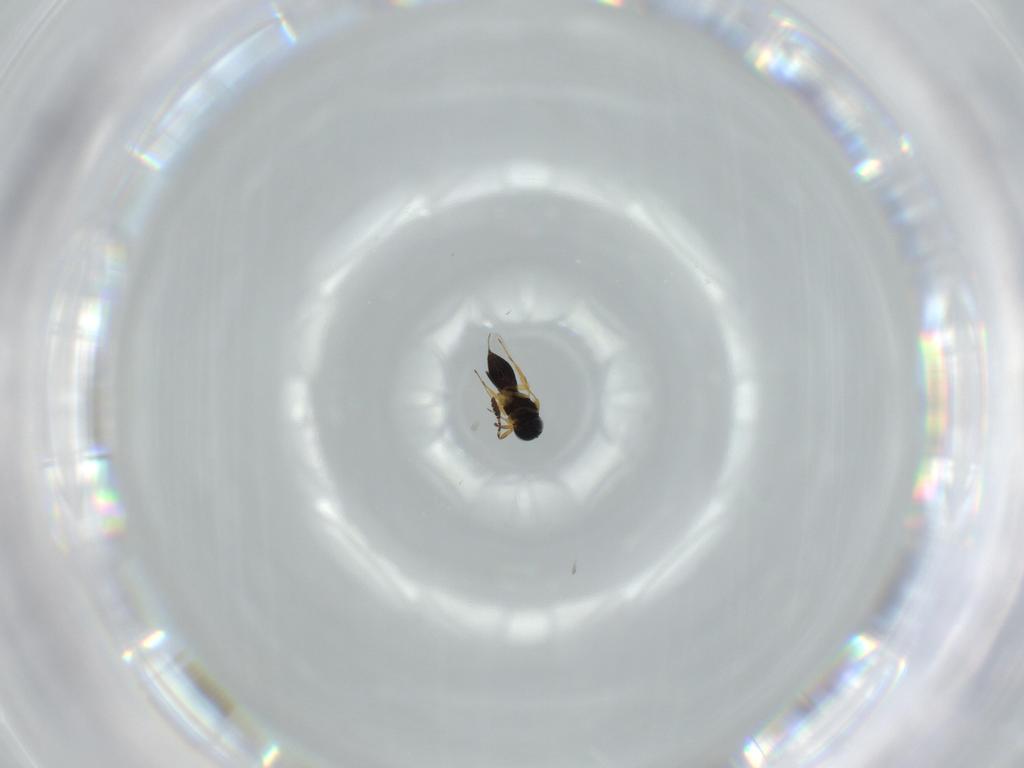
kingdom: Animalia
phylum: Arthropoda
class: Insecta
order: Hymenoptera
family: Scelionidae
